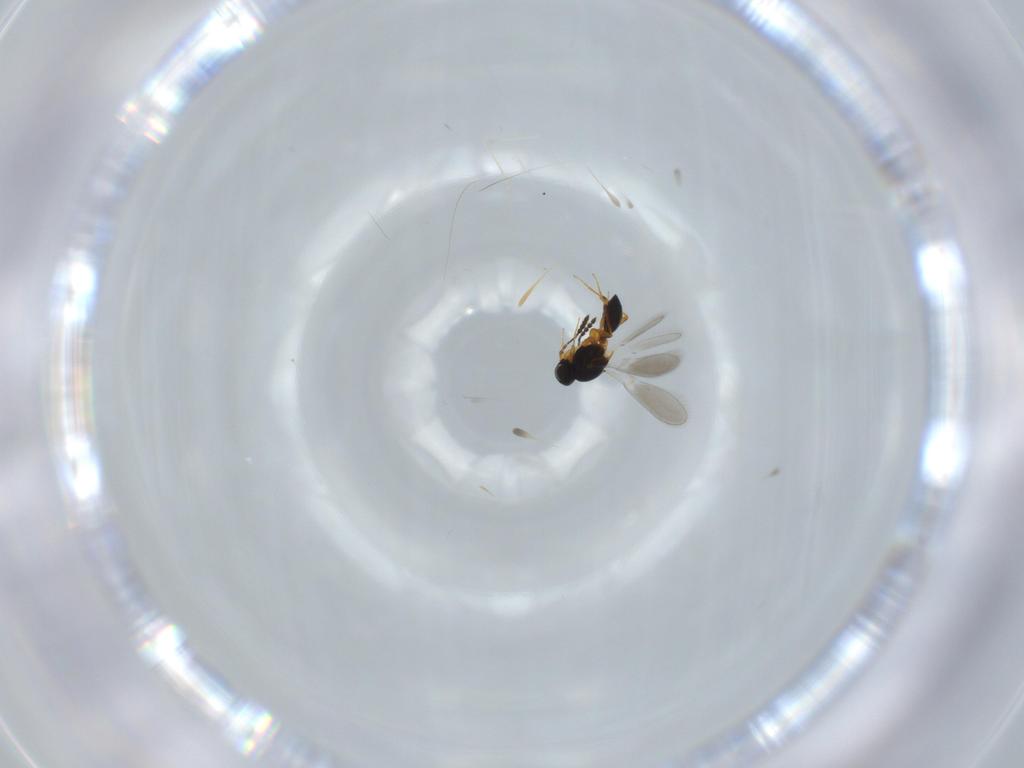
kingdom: Animalia
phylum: Arthropoda
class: Insecta
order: Hymenoptera
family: Platygastridae
